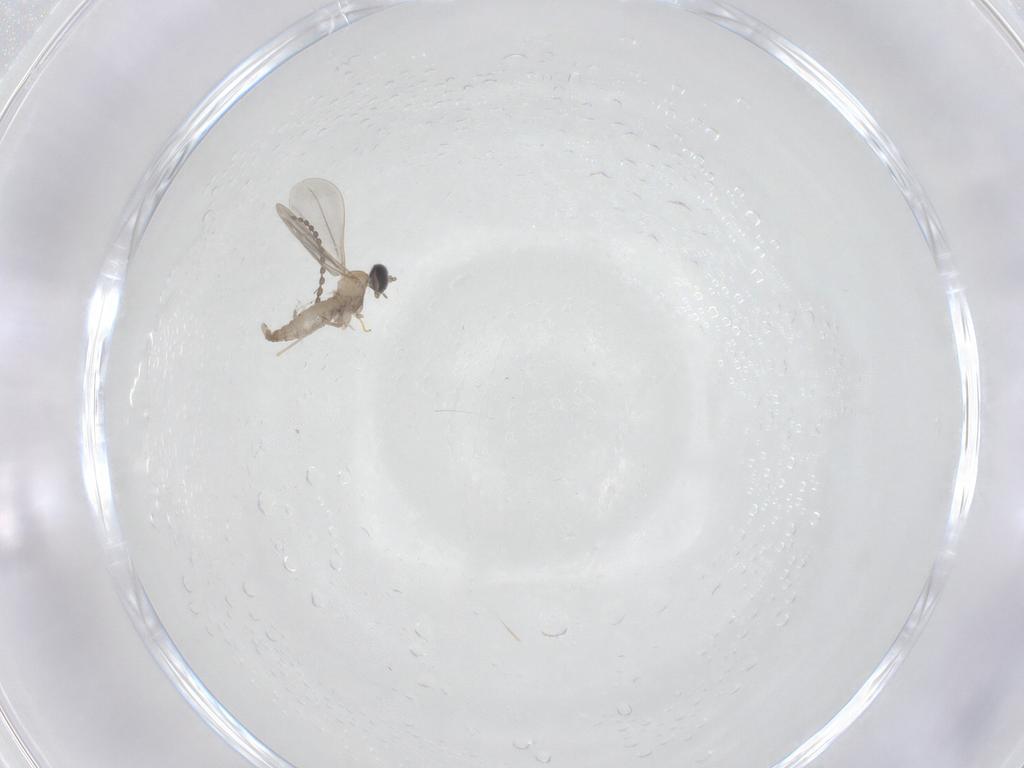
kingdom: Animalia
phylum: Arthropoda
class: Insecta
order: Diptera
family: Cecidomyiidae
